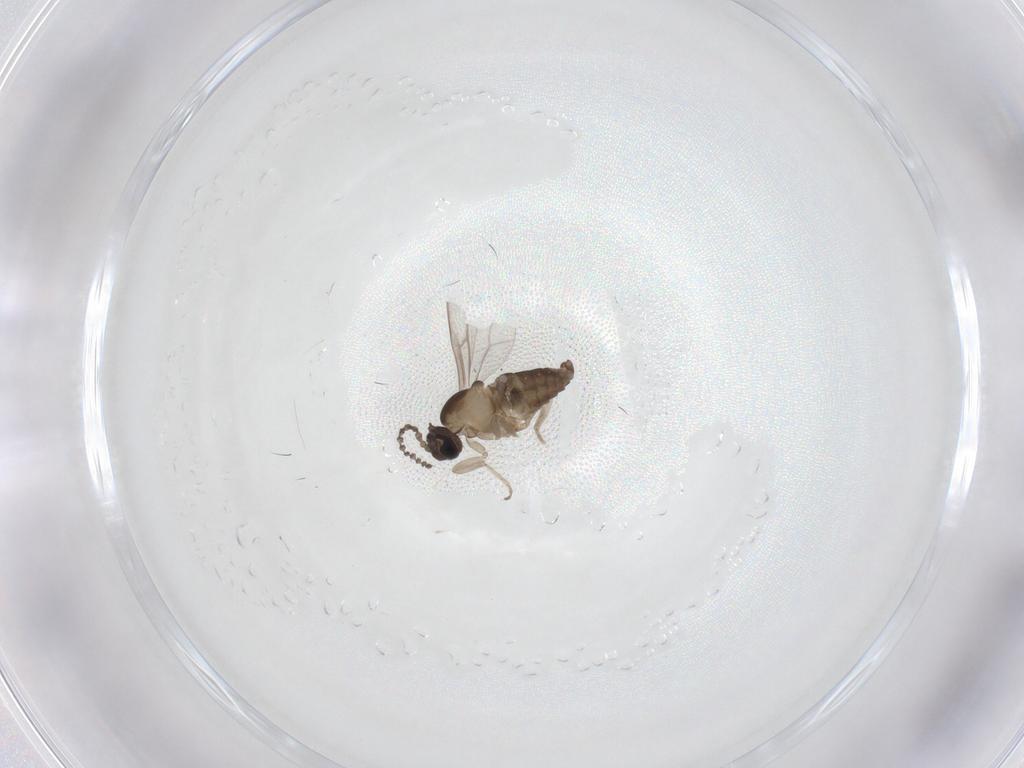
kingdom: Animalia
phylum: Arthropoda
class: Insecta
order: Diptera
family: Cecidomyiidae
